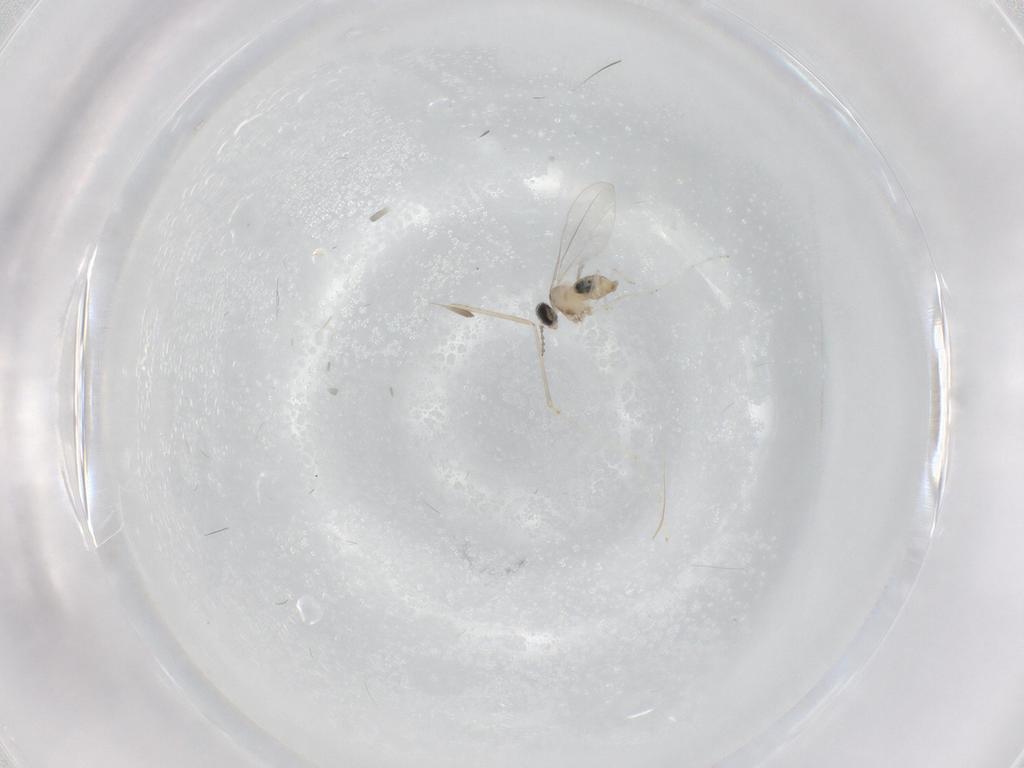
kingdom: Animalia
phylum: Arthropoda
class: Insecta
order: Diptera
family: Cecidomyiidae
